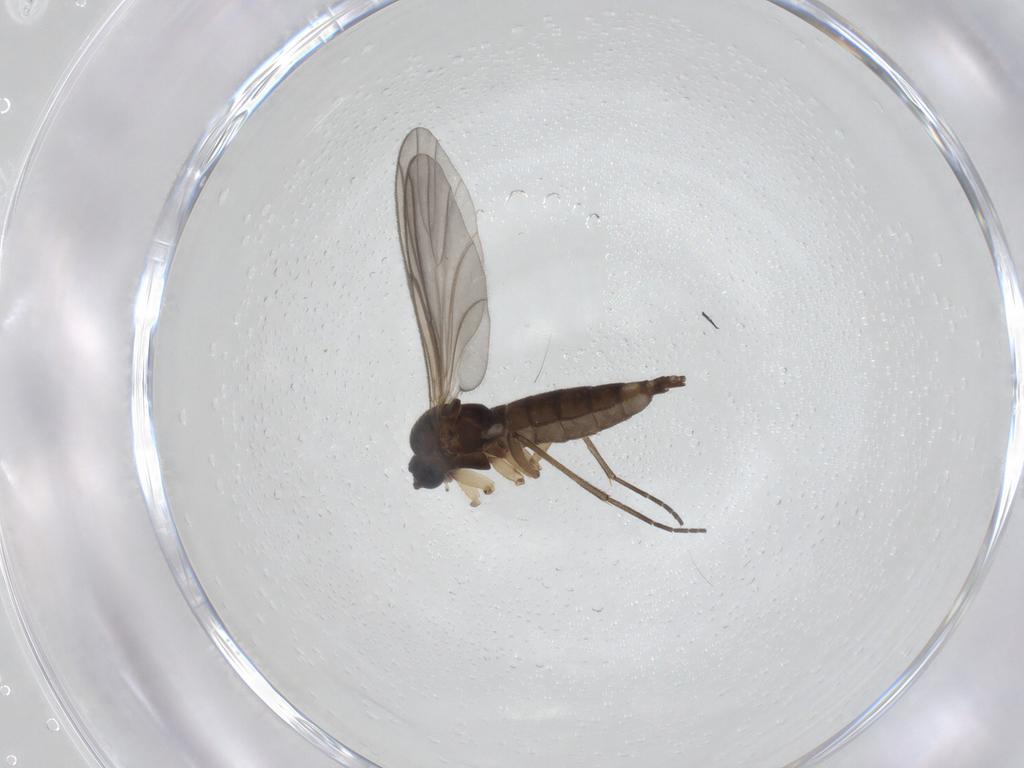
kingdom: Animalia
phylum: Arthropoda
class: Insecta
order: Diptera
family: Sciaridae
